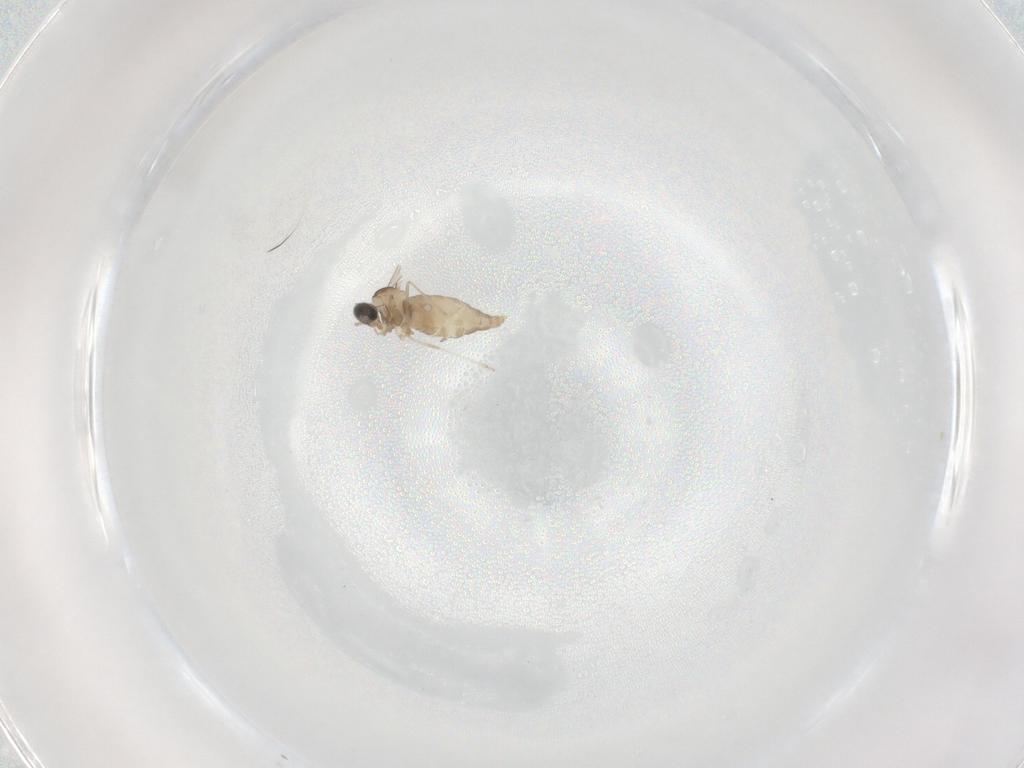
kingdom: Animalia
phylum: Arthropoda
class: Insecta
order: Diptera
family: Cecidomyiidae
